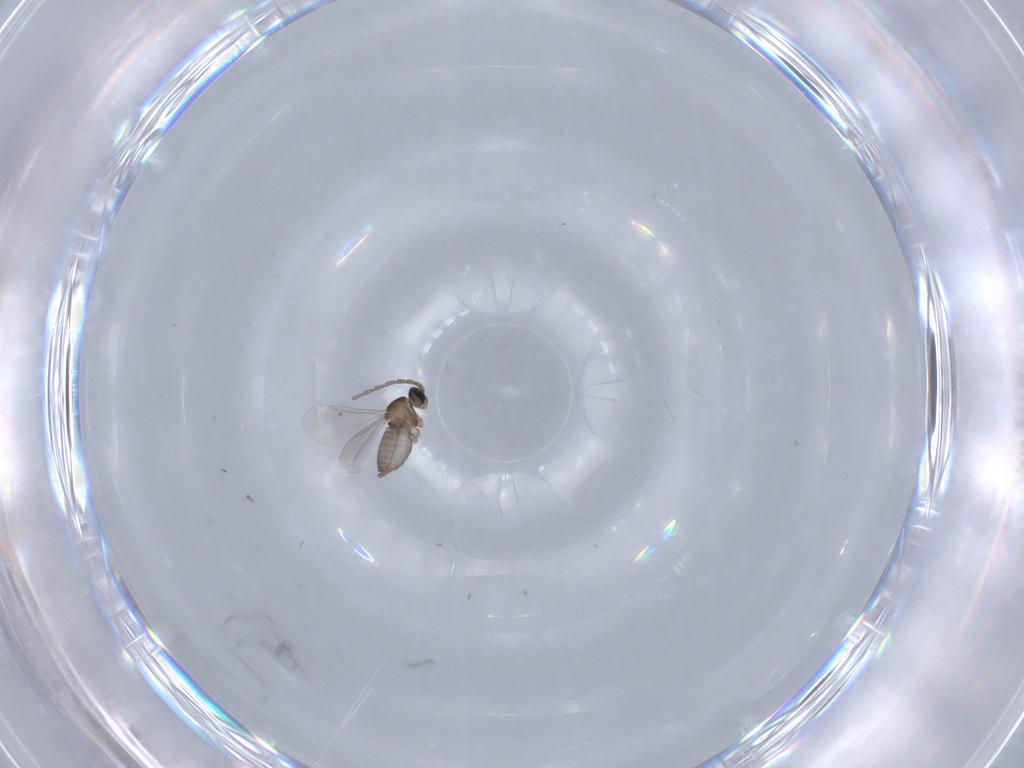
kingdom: Animalia
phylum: Arthropoda
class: Insecta
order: Diptera
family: Cecidomyiidae
